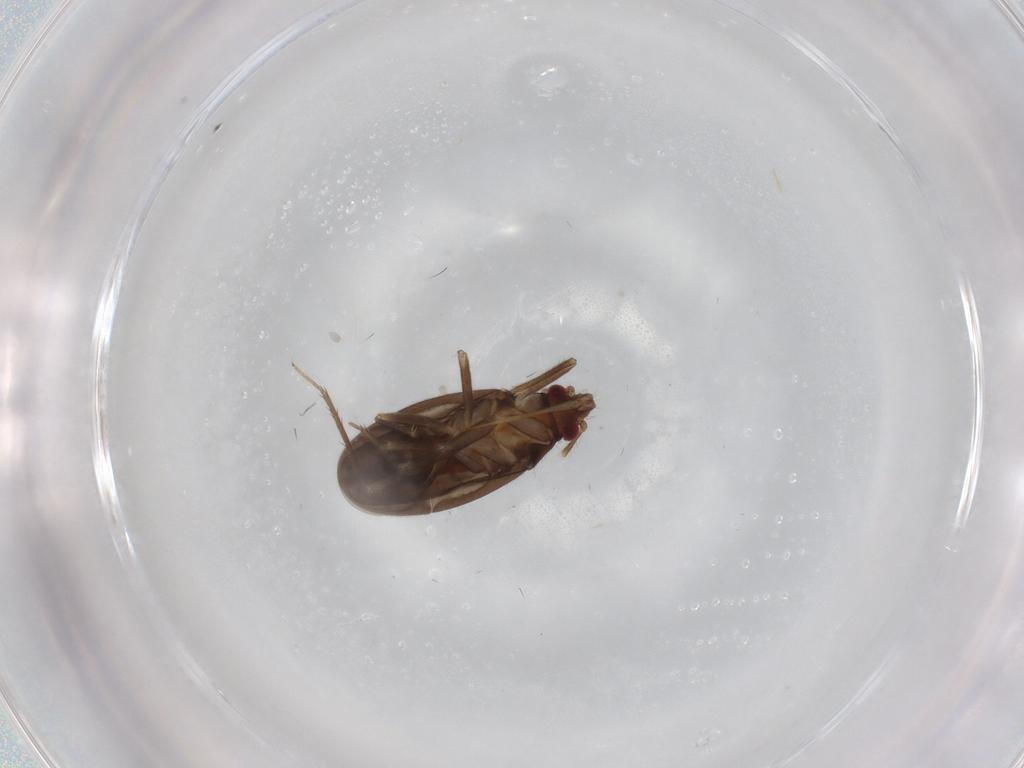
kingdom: Animalia
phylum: Arthropoda
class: Insecta
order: Hemiptera
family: Ceratocombidae
